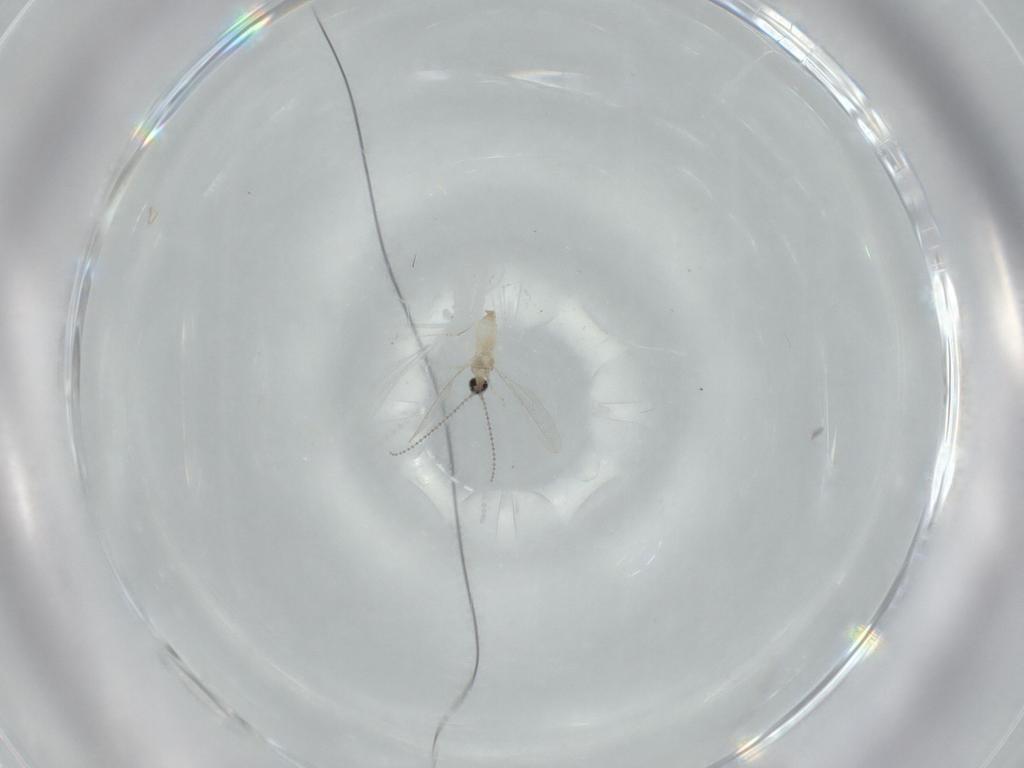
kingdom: Animalia
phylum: Arthropoda
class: Insecta
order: Diptera
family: Cecidomyiidae
